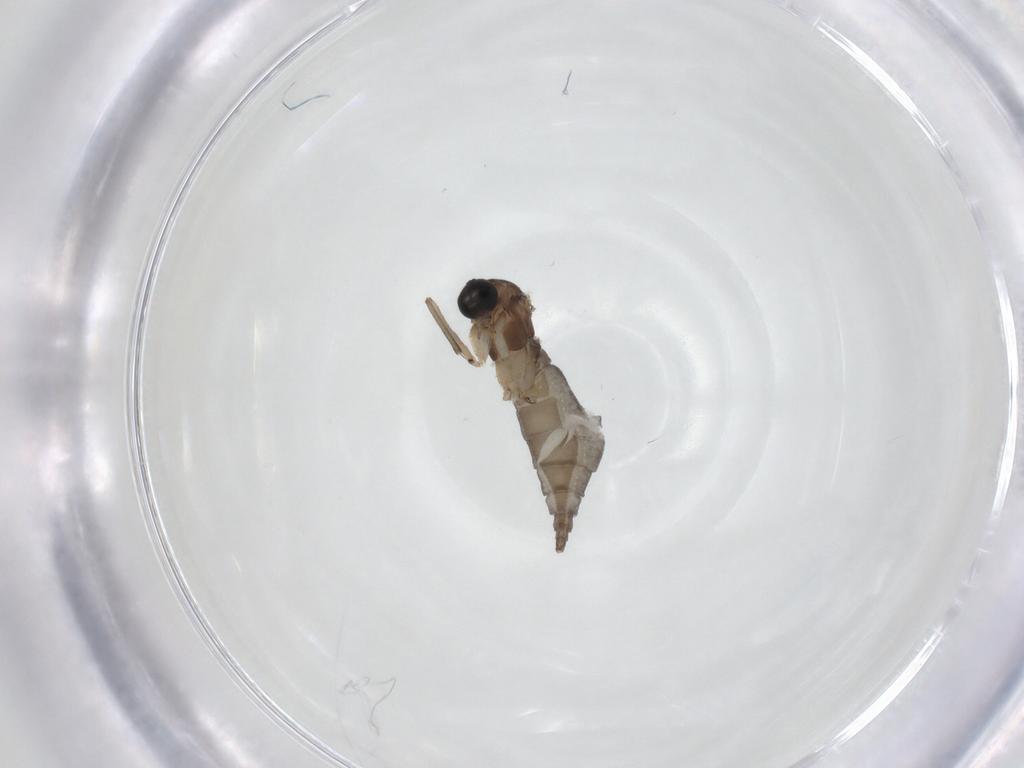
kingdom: Animalia
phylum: Arthropoda
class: Insecta
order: Diptera
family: Sciaridae
